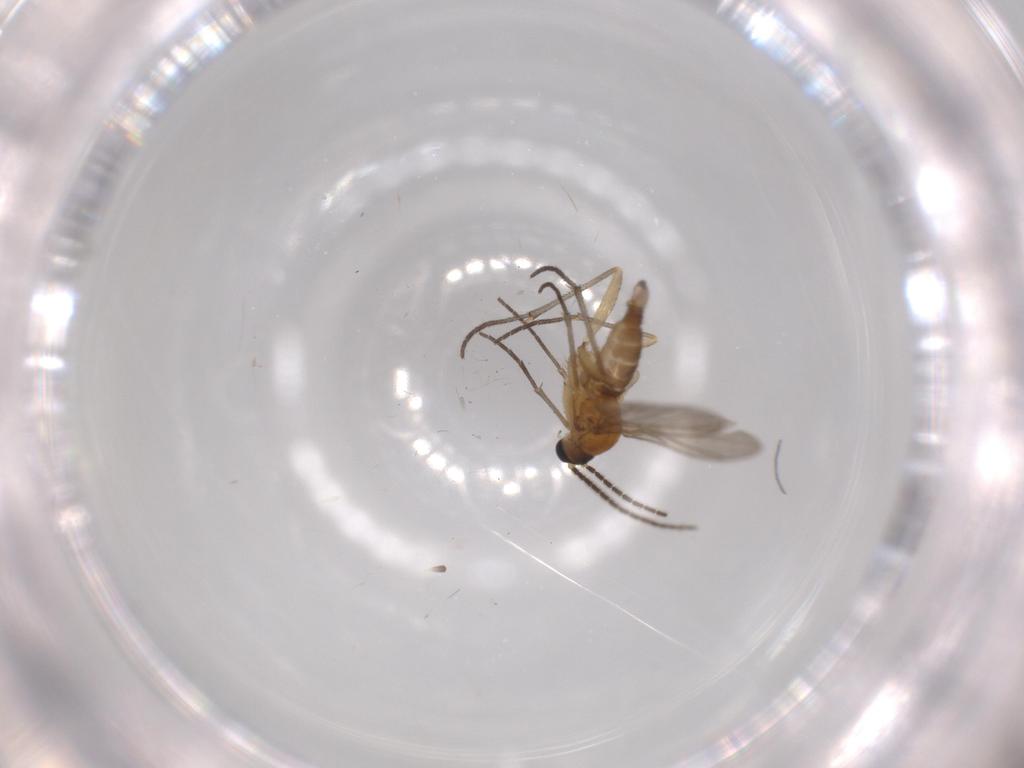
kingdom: Animalia
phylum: Arthropoda
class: Insecta
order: Diptera
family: Sciaridae
